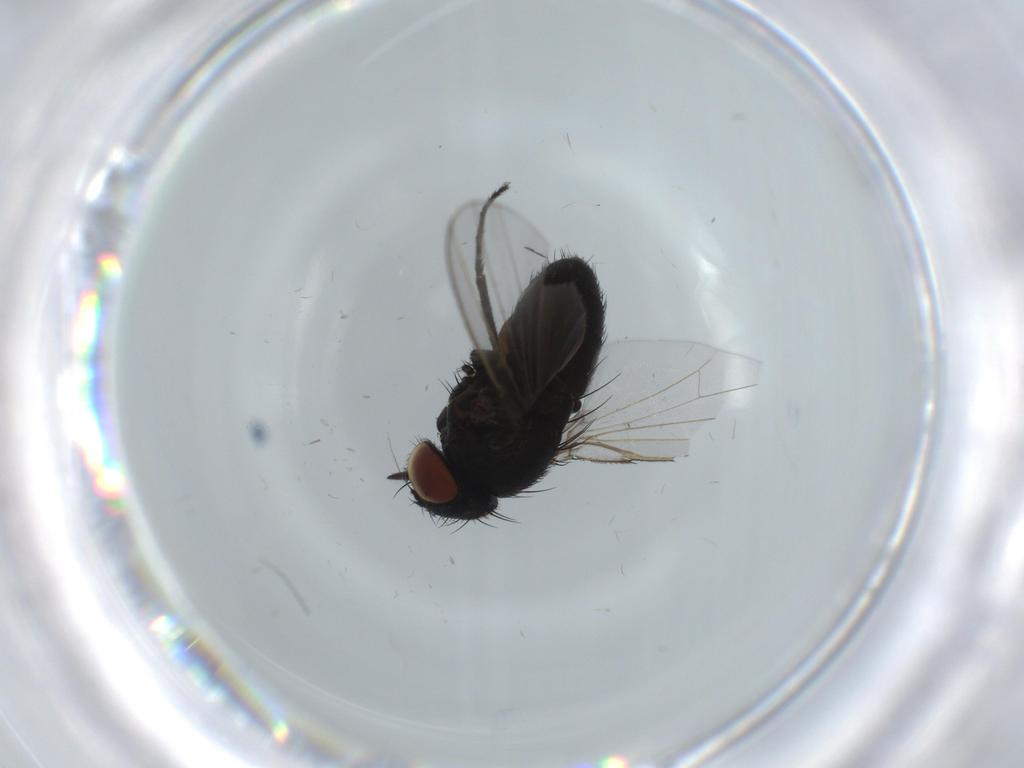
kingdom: Animalia
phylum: Arthropoda
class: Insecta
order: Diptera
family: Milichiidae
